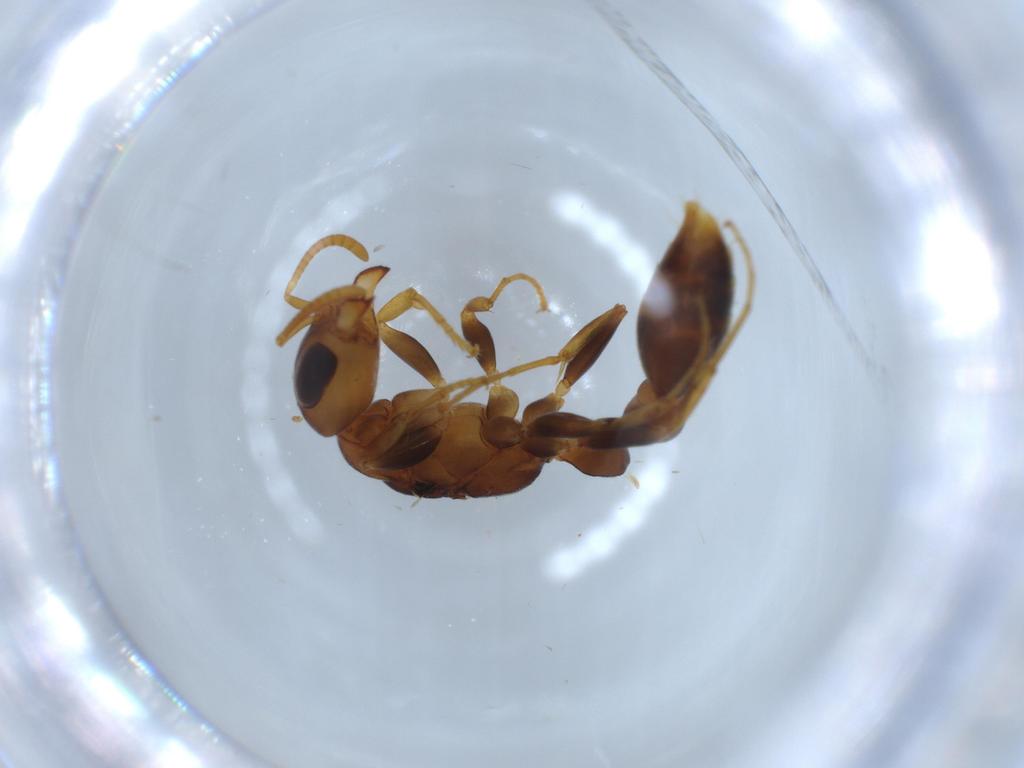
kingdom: Animalia
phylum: Arthropoda
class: Insecta
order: Hymenoptera
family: Formicidae
